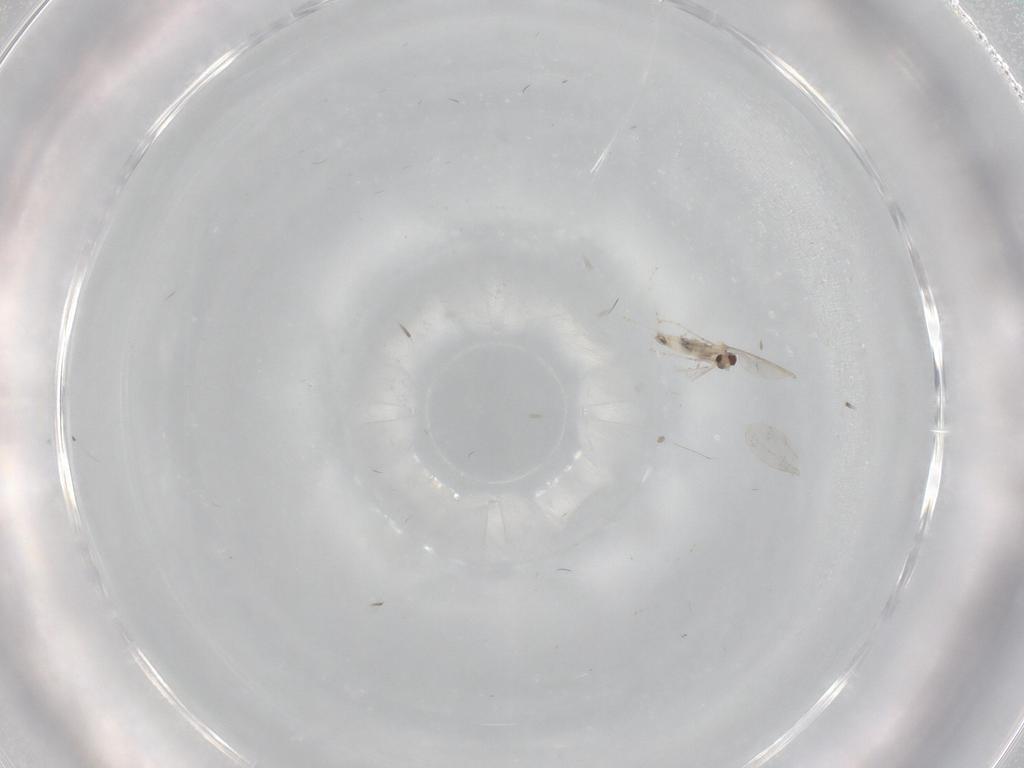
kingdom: Animalia
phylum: Arthropoda
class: Insecta
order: Diptera
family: Cecidomyiidae
